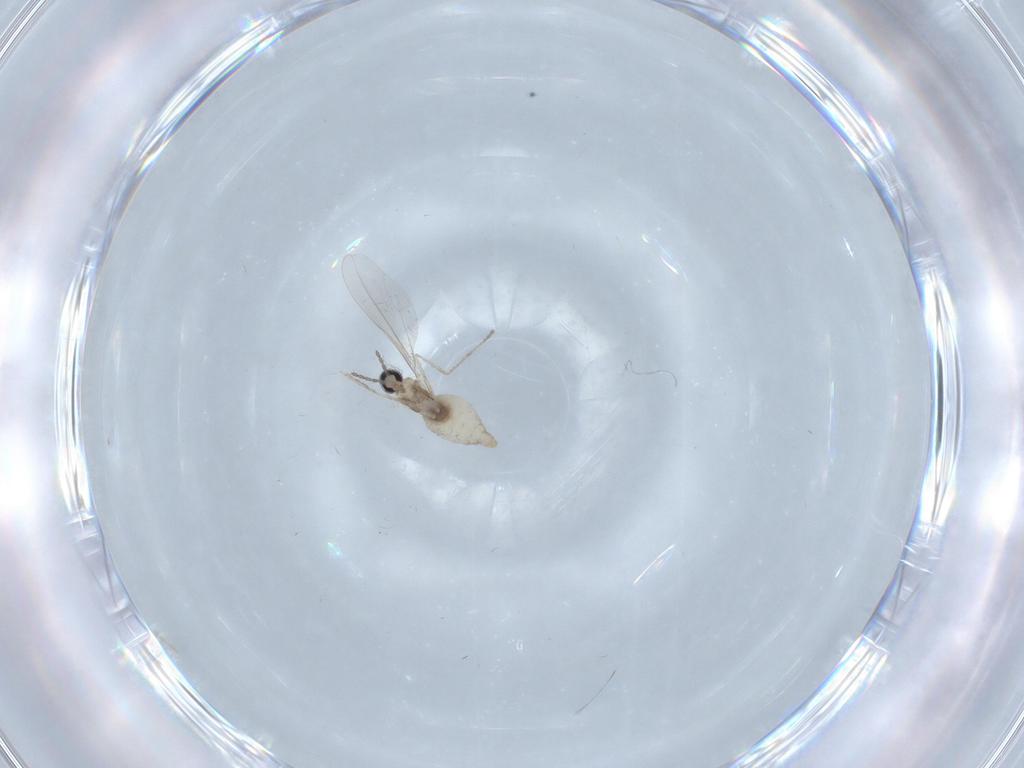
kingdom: Animalia
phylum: Arthropoda
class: Insecta
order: Diptera
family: Cecidomyiidae
